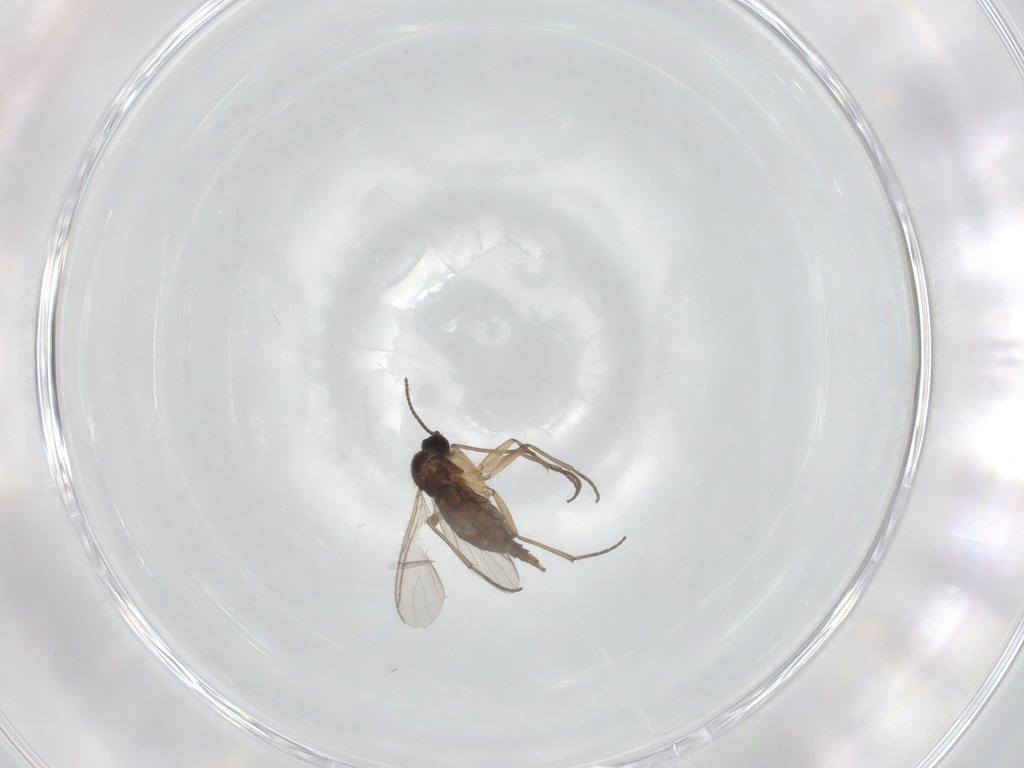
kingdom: Animalia
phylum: Arthropoda
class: Insecta
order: Diptera
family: Sciaridae
